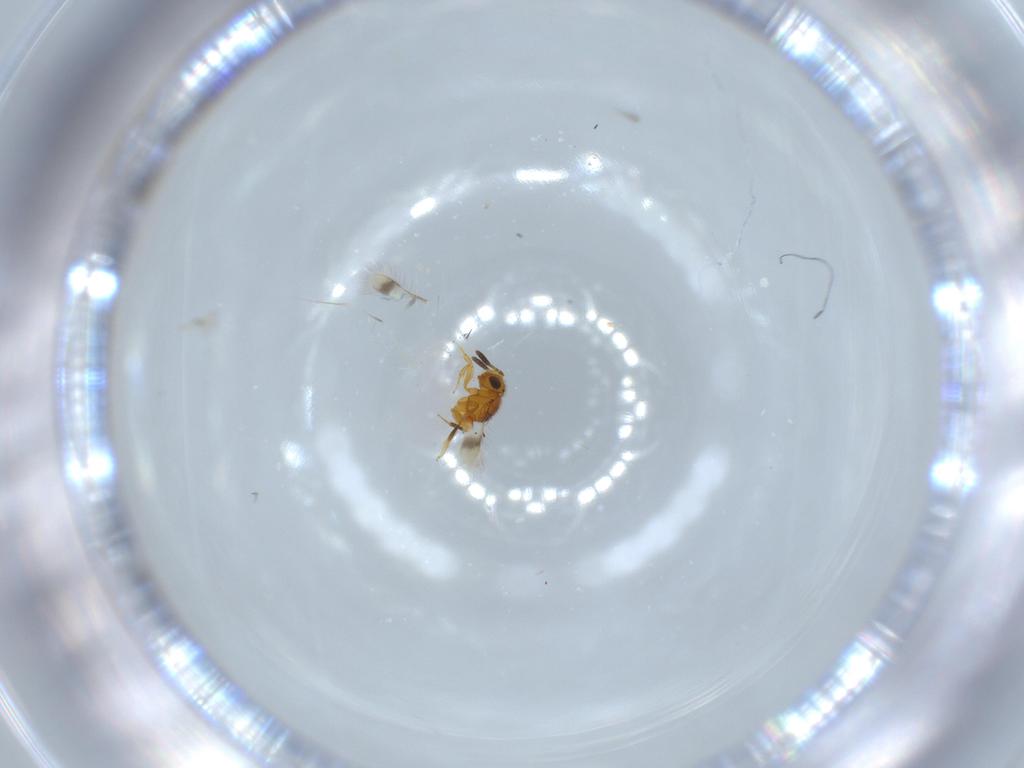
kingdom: Animalia
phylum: Arthropoda
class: Insecta
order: Hymenoptera
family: Scelionidae
